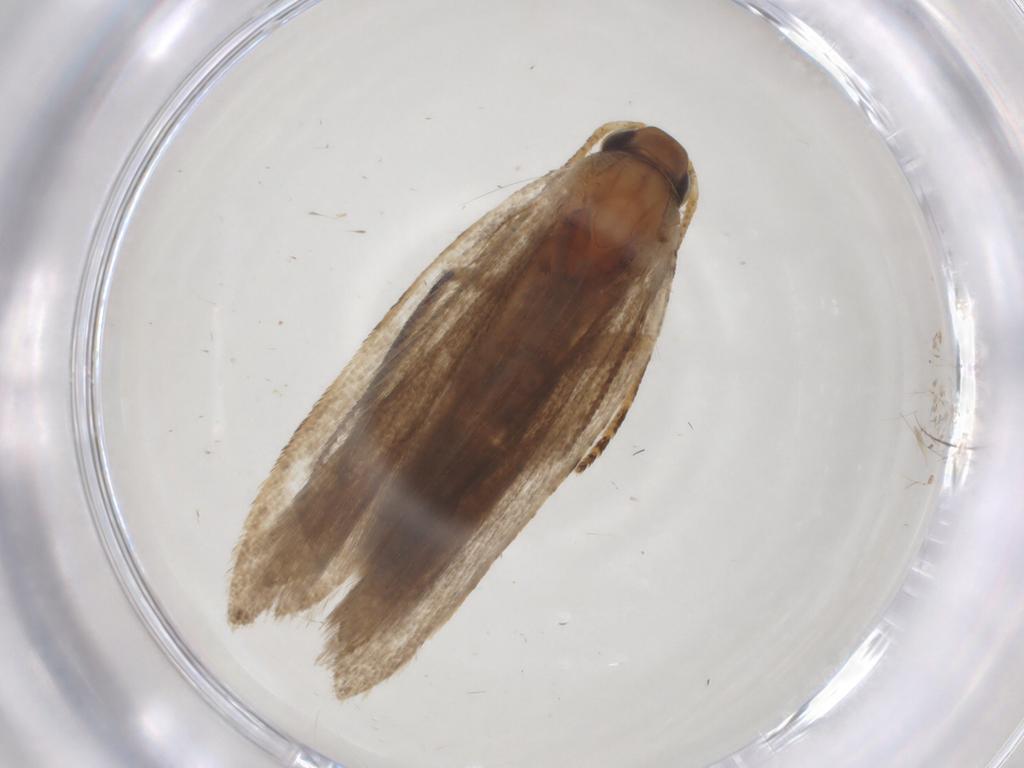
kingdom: Animalia
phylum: Arthropoda
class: Insecta
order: Lepidoptera
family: Gelechiidae
